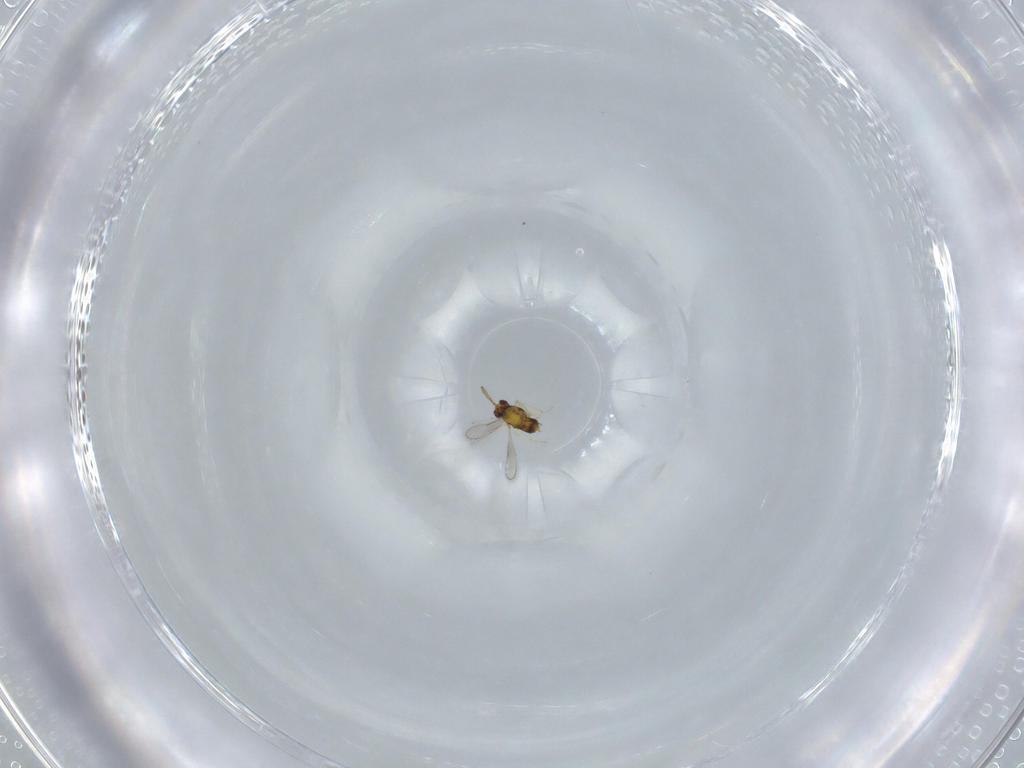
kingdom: Animalia
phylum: Arthropoda
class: Insecta
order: Hymenoptera
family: Aphelinidae
